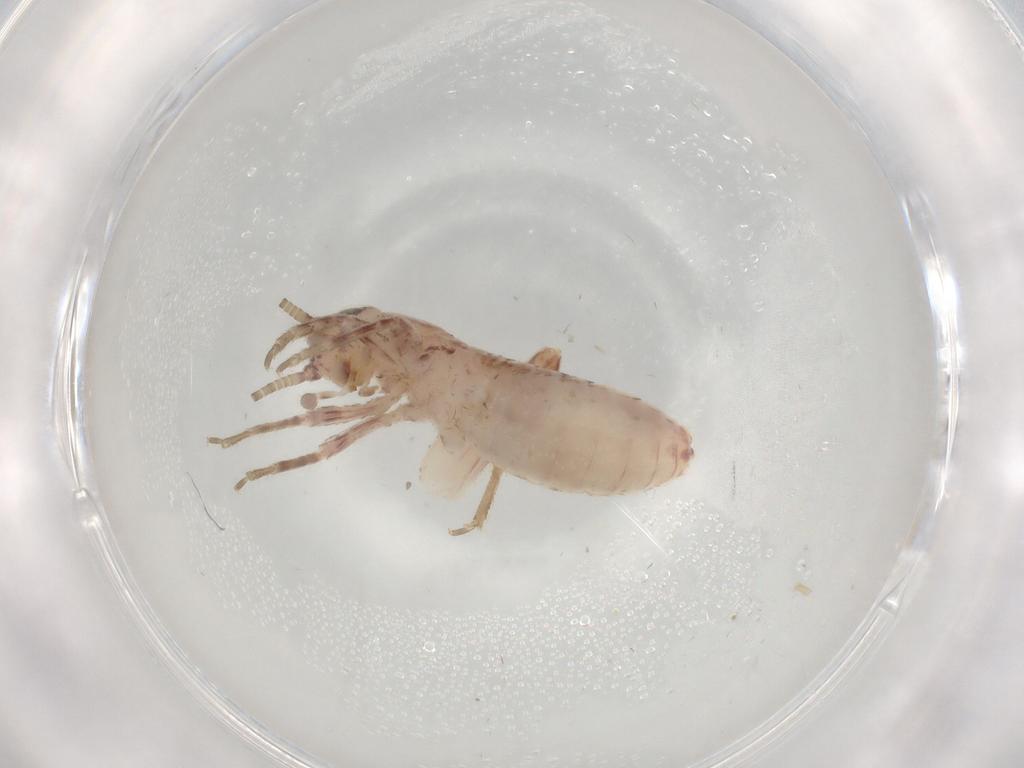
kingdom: Animalia
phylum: Arthropoda
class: Insecta
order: Orthoptera
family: Mogoplistidae
